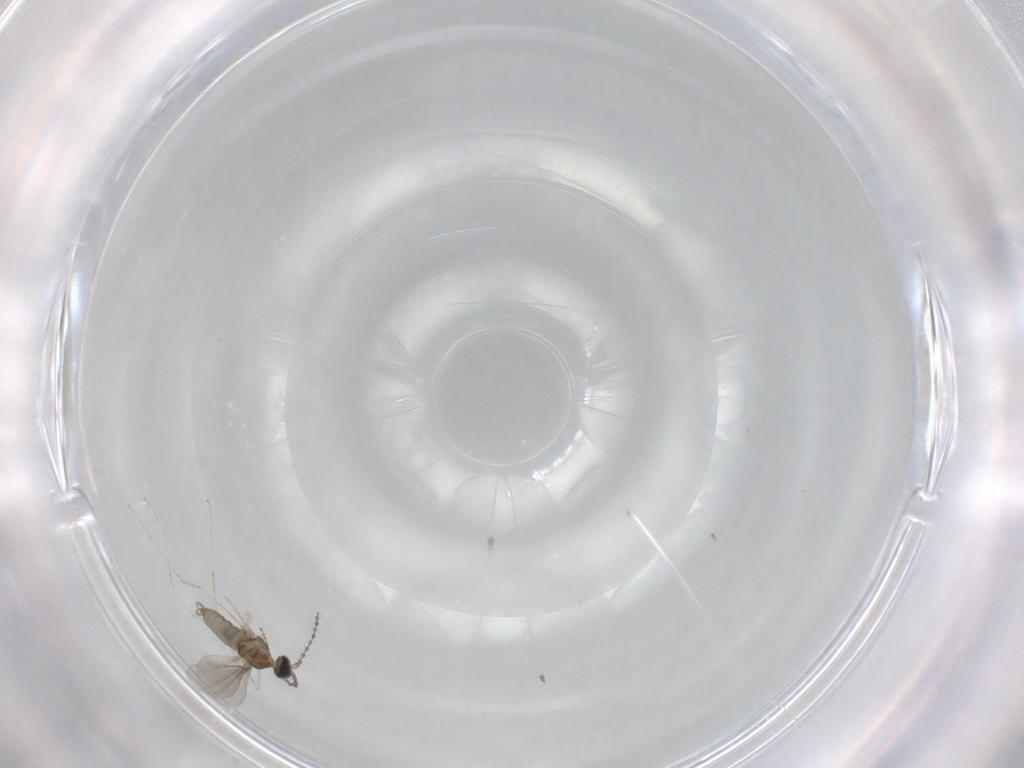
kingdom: Animalia
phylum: Arthropoda
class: Insecta
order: Diptera
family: Cecidomyiidae
